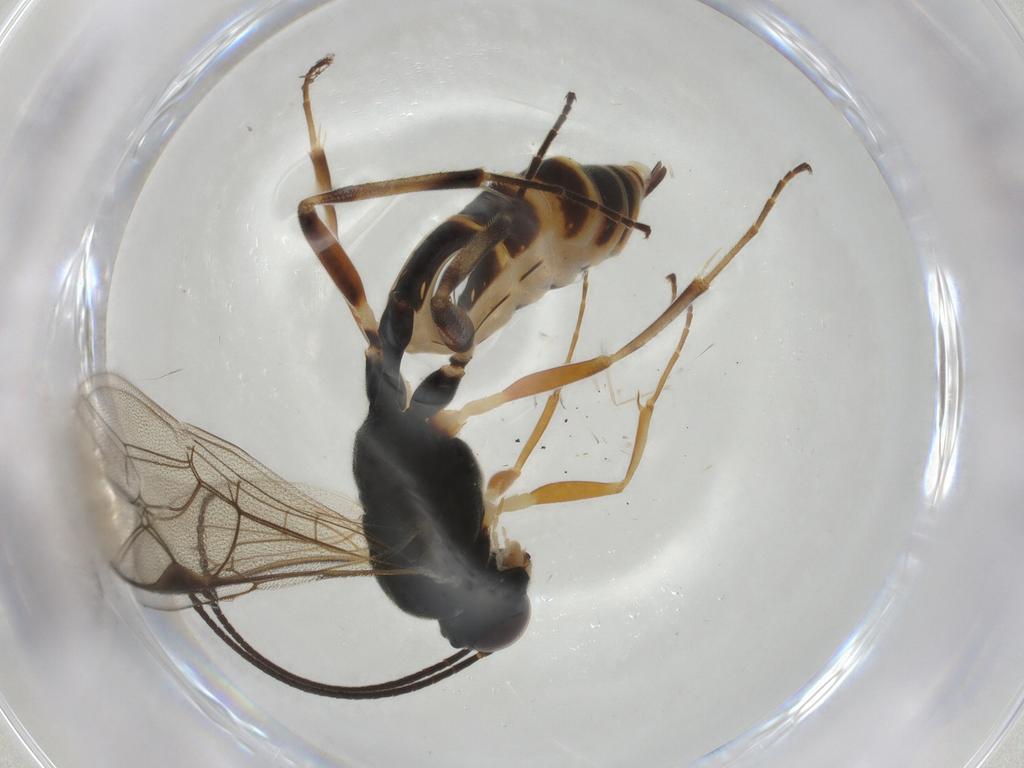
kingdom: Animalia
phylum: Arthropoda
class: Insecta
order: Hymenoptera
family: Ichneumonidae
